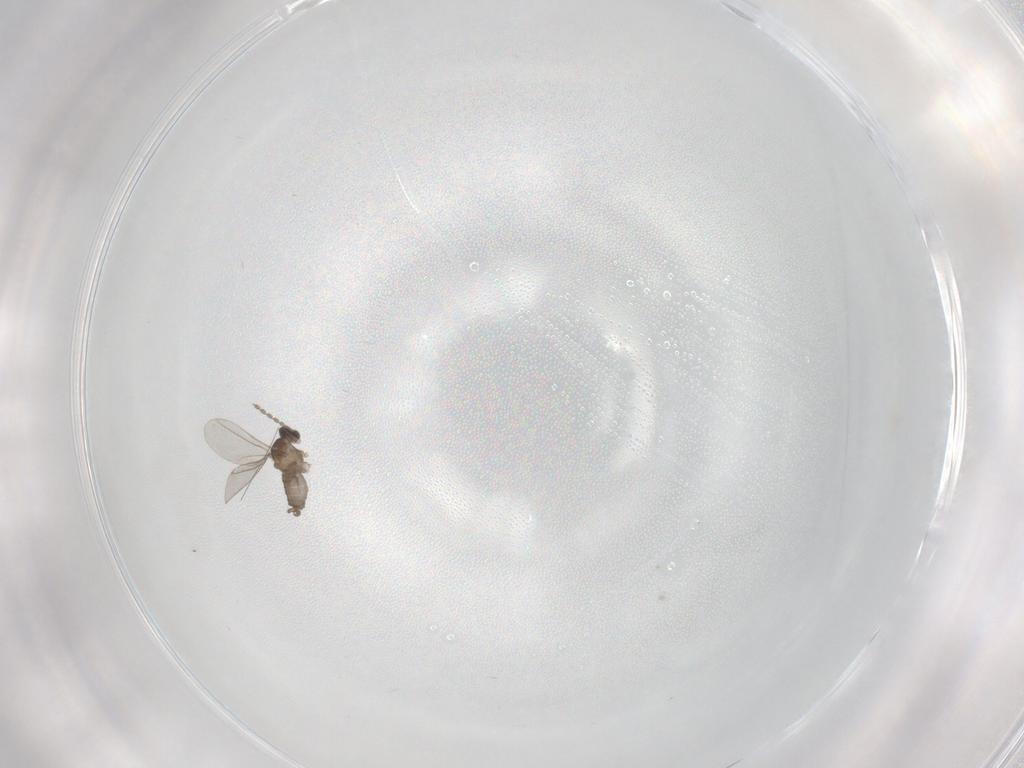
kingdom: Animalia
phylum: Arthropoda
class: Insecta
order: Diptera
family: Cecidomyiidae
